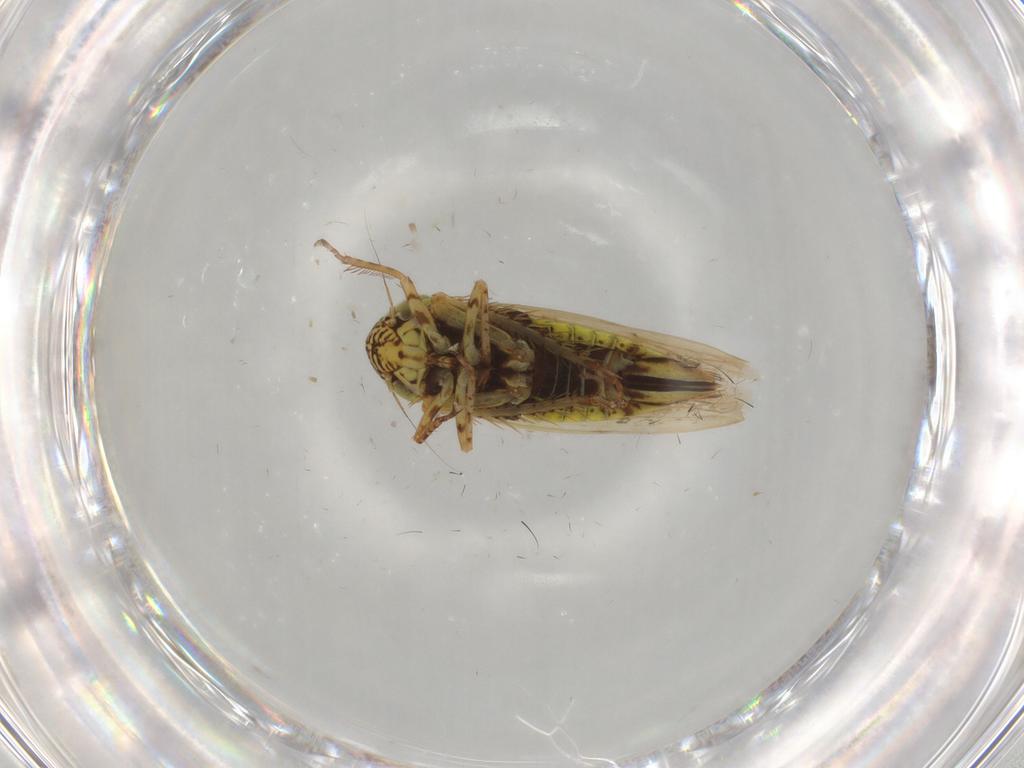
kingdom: Animalia
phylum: Arthropoda
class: Insecta
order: Hemiptera
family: Cicadellidae
